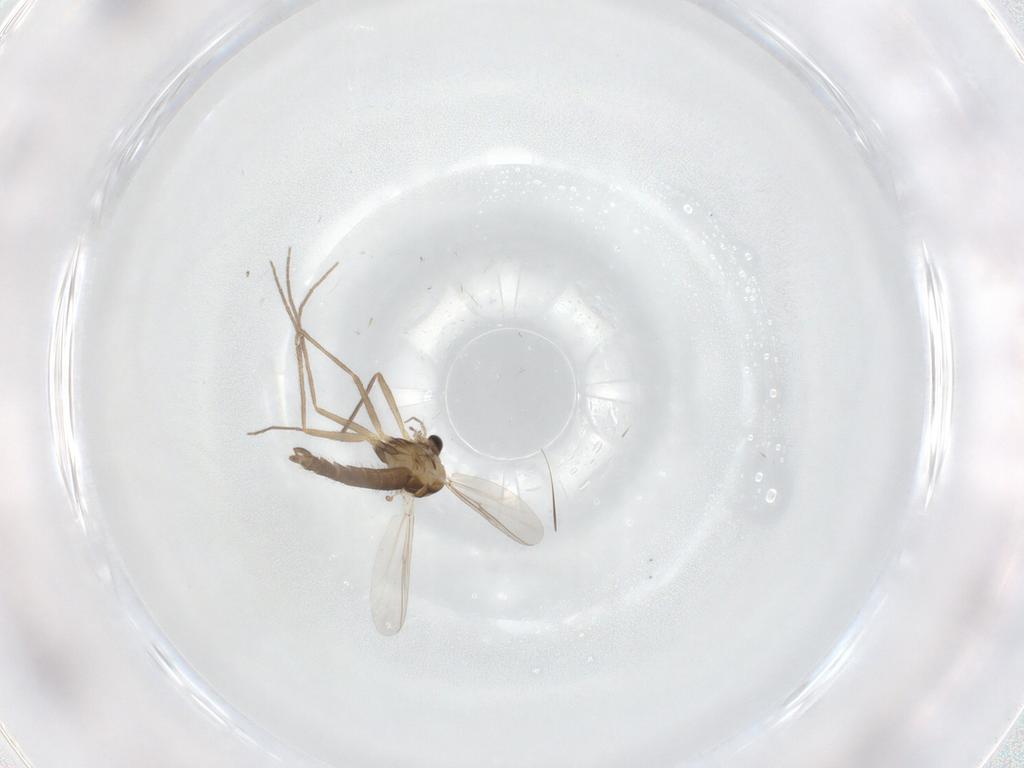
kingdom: Animalia
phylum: Arthropoda
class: Insecta
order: Diptera
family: Chironomidae
